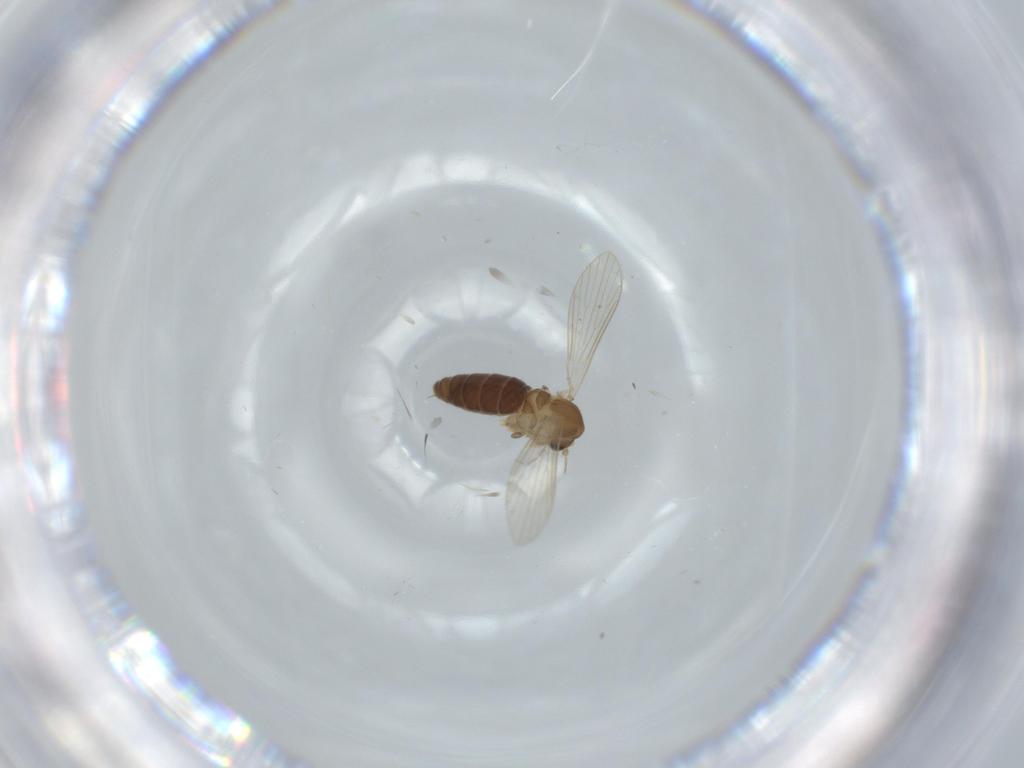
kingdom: Animalia
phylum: Arthropoda
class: Insecta
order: Diptera
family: Psychodidae
